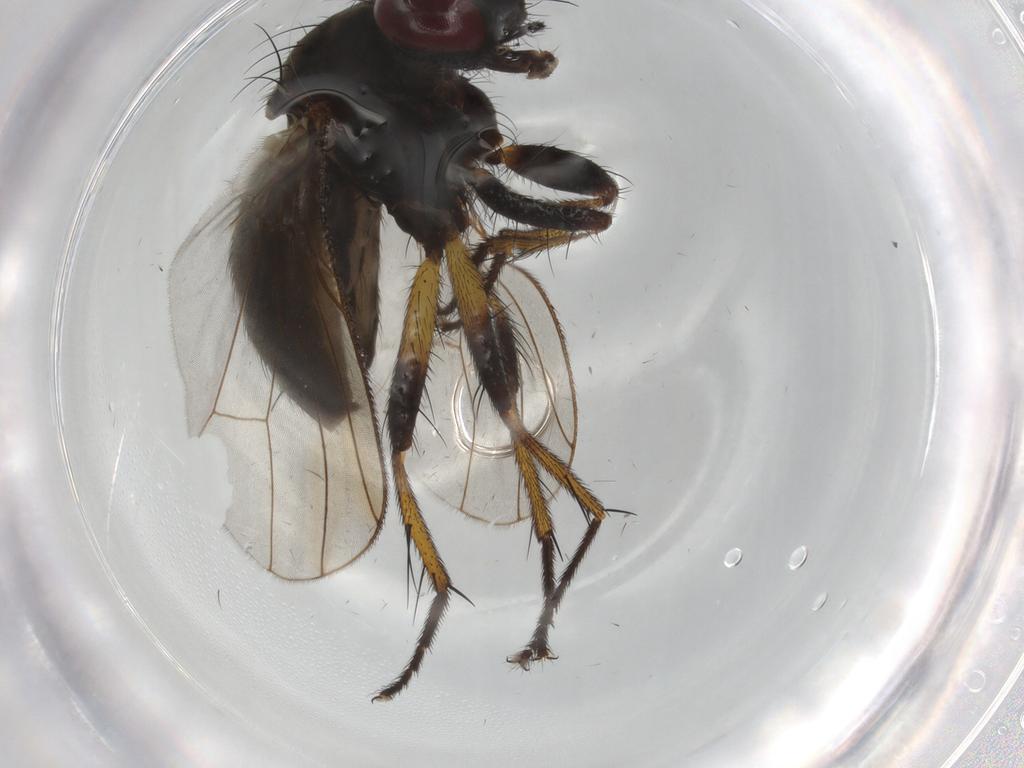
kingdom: Animalia
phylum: Arthropoda
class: Insecta
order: Diptera
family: Muscidae
